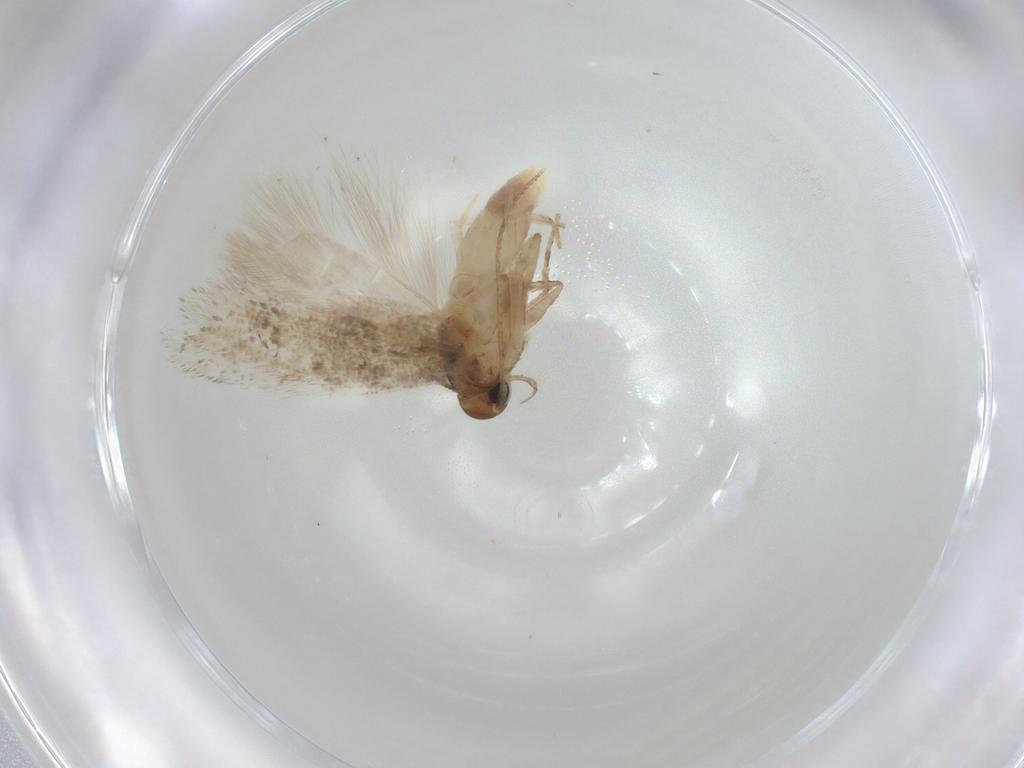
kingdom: Animalia
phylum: Arthropoda
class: Insecta
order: Lepidoptera
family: Gelechiidae
